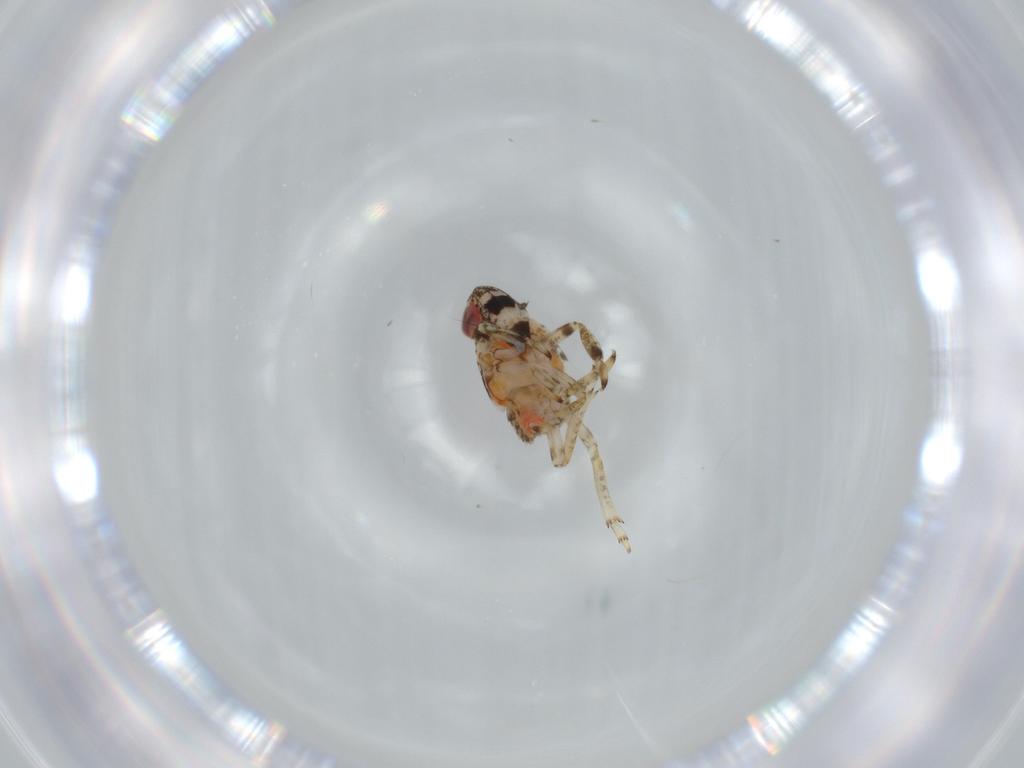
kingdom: Animalia
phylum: Arthropoda
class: Insecta
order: Hemiptera
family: Issidae
